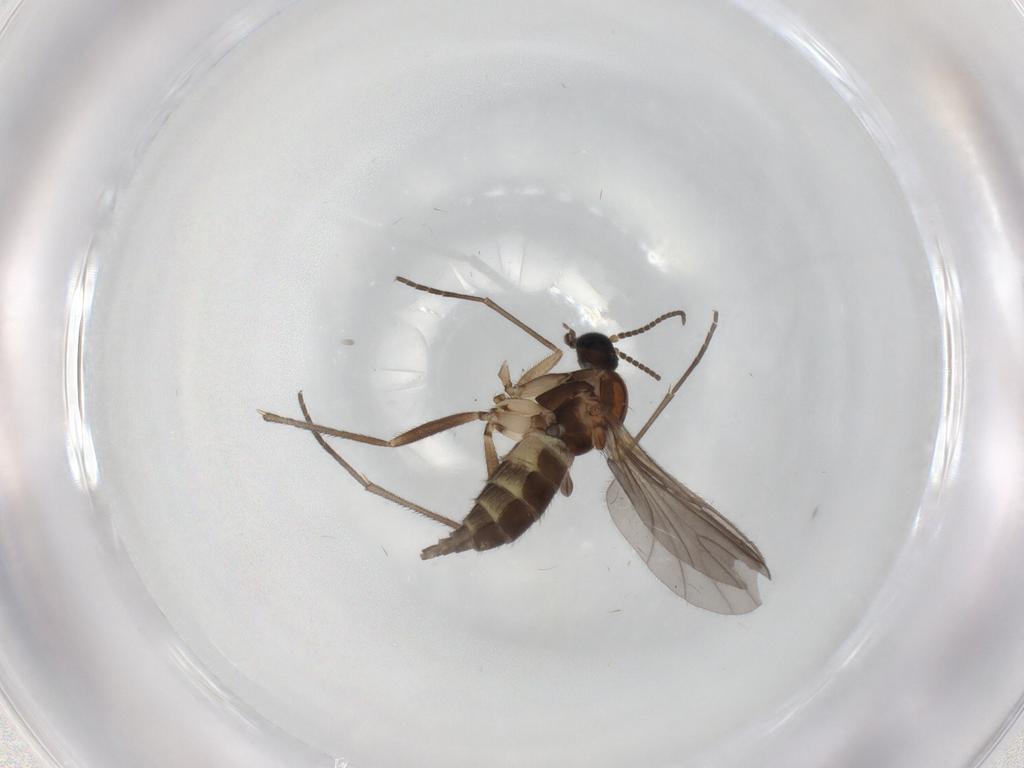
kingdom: Animalia
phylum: Arthropoda
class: Insecta
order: Diptera
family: Sciaridae
